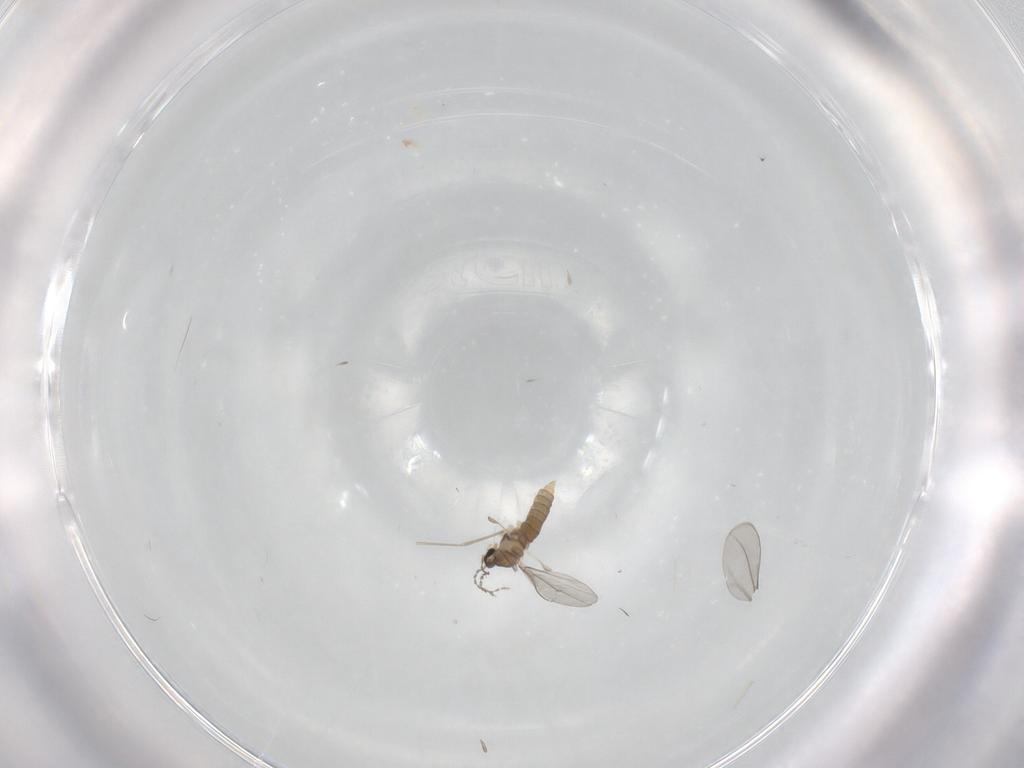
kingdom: Animalia
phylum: Arthropoda
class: Insecta
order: Diptera
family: Cecidomyiidae
